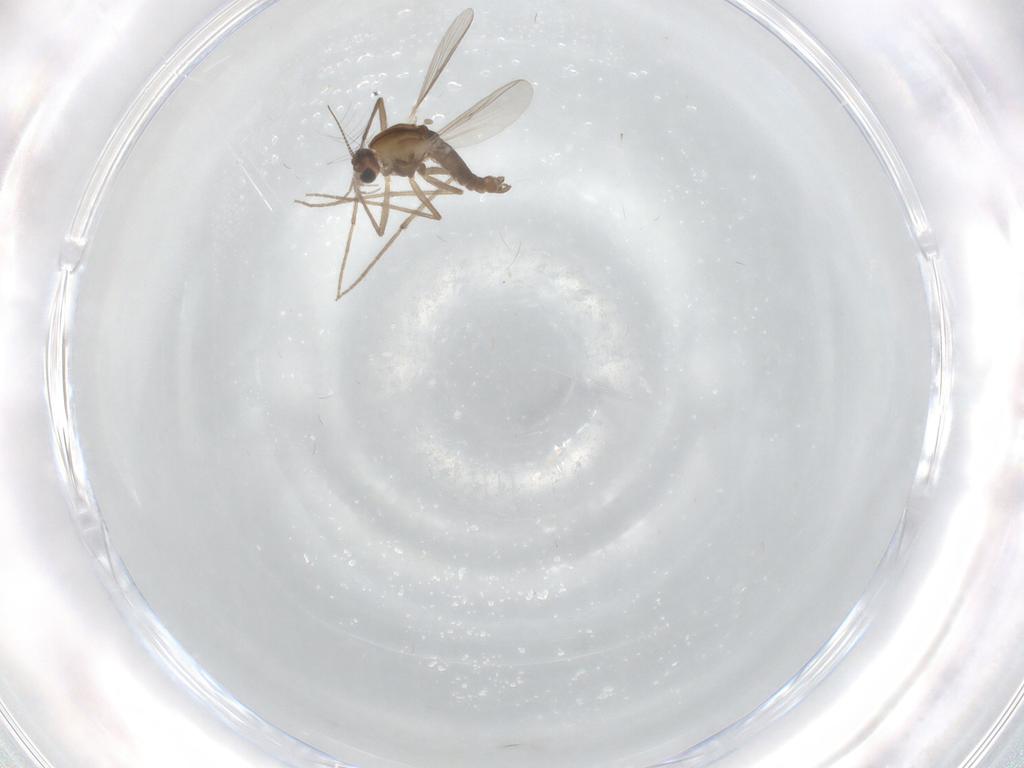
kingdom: Animalia
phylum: Arthropoda
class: Insecta
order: Diptera
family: Chironomidae
